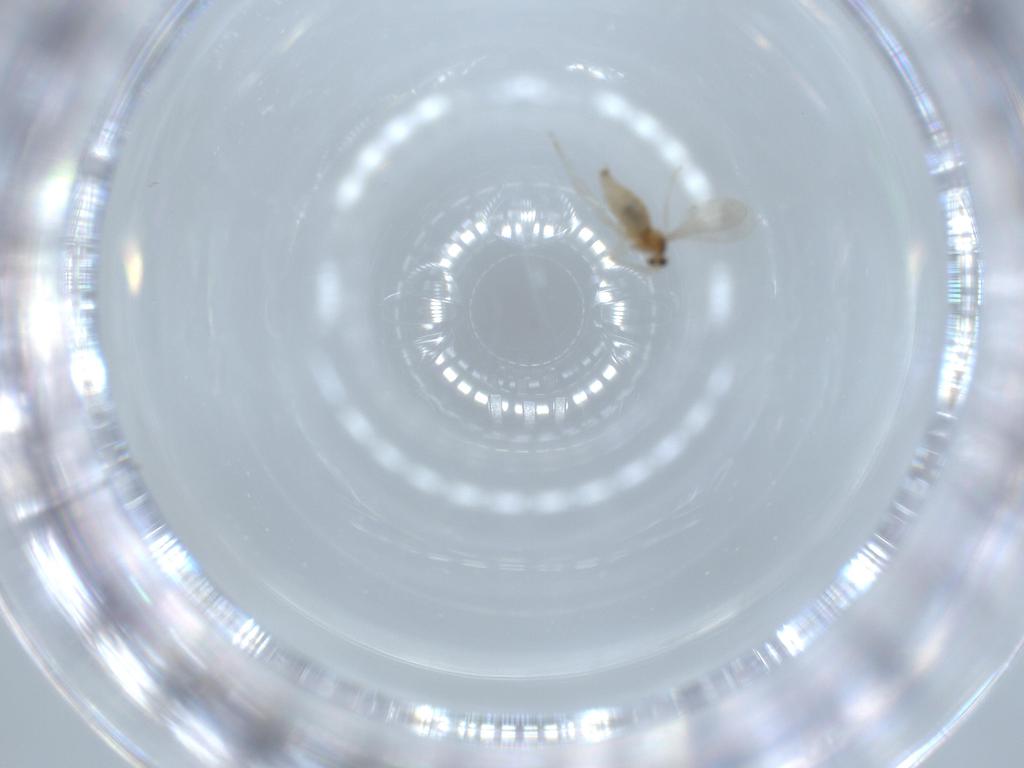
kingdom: Animalia
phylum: Arthropoda
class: Insecta
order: Diptera
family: Cecidomyiidae
